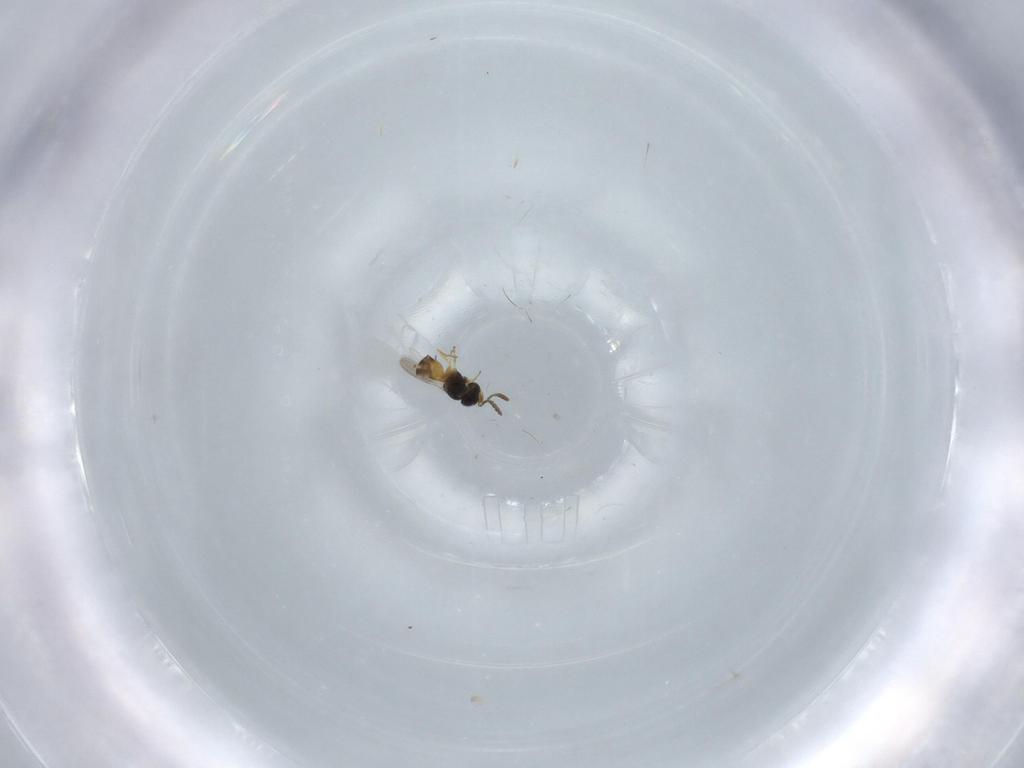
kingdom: Animalia
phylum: Arthropoda
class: Insecta
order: Hymenoptera
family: Scelionidae
